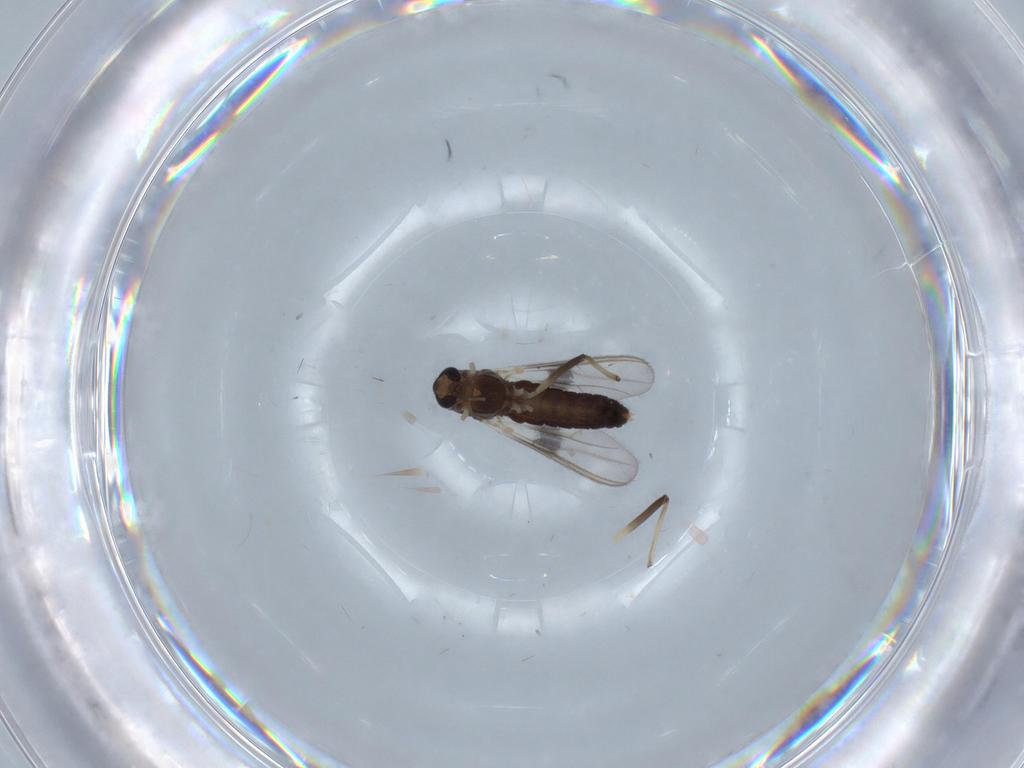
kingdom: Animalia
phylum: Arthropoda
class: Insecta
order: Diptera
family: Chironomidae
